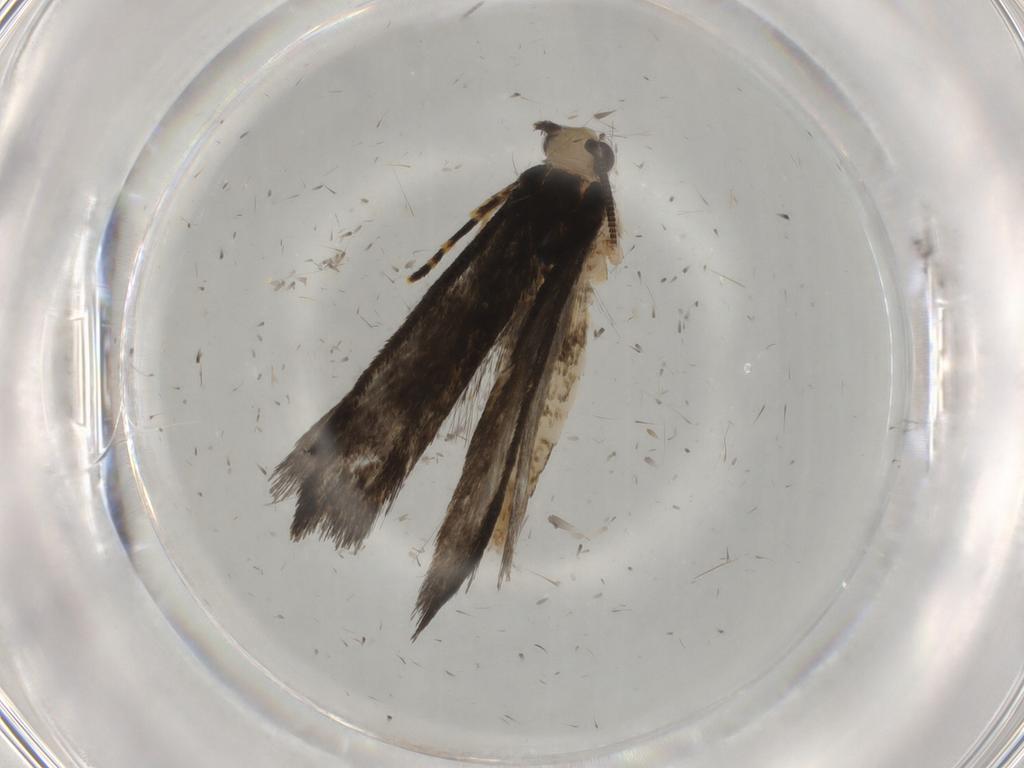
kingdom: Animalia
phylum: Arthropoda
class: Insecta
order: Lepidoptera
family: Tineidae
